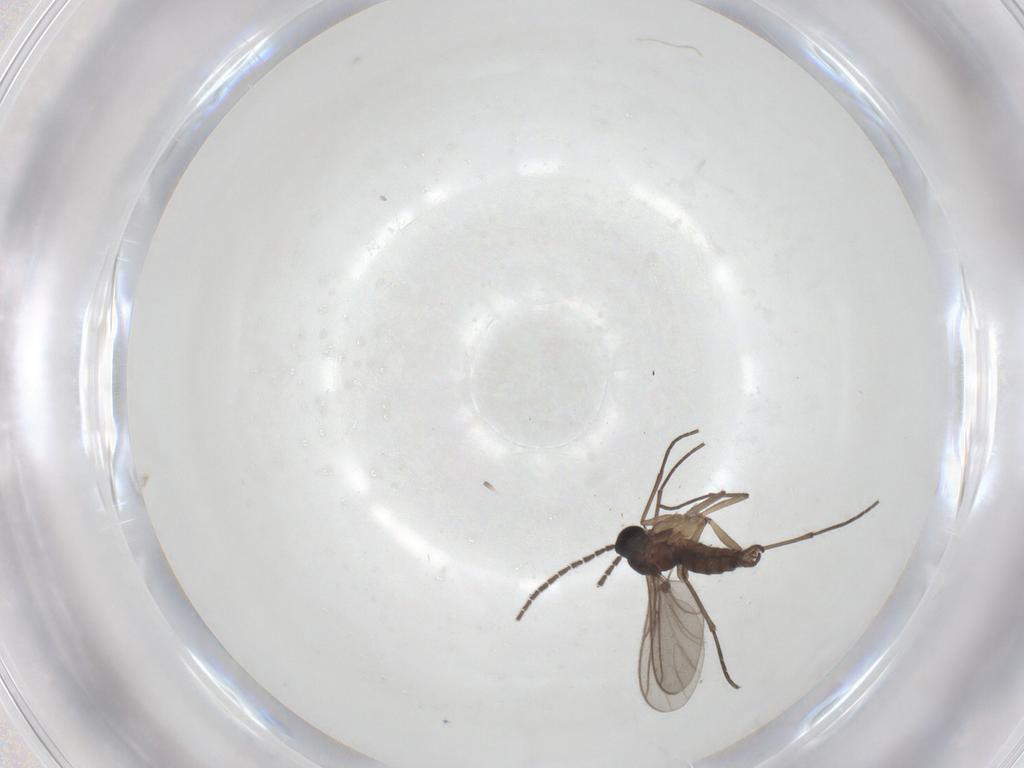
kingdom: Animalia
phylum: Arthropoda
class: Insecta
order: Diptera
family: Sciaridae
